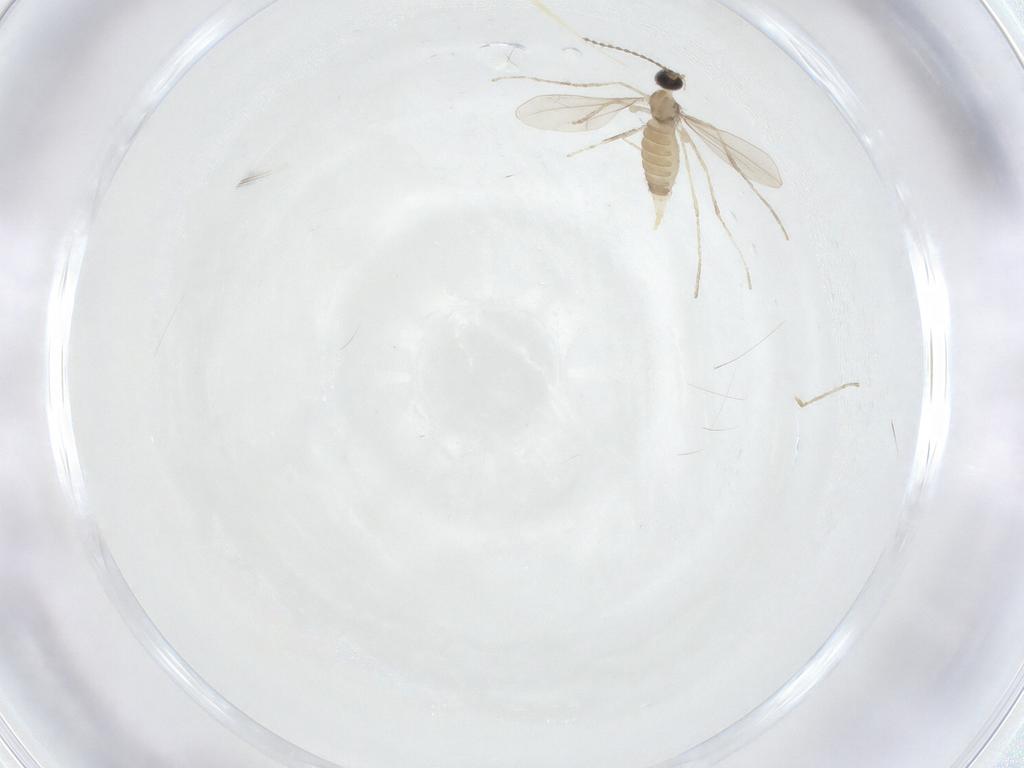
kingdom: Animalia
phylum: Arthropoda
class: Insecta
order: Diptera
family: Cecidomyiidae
